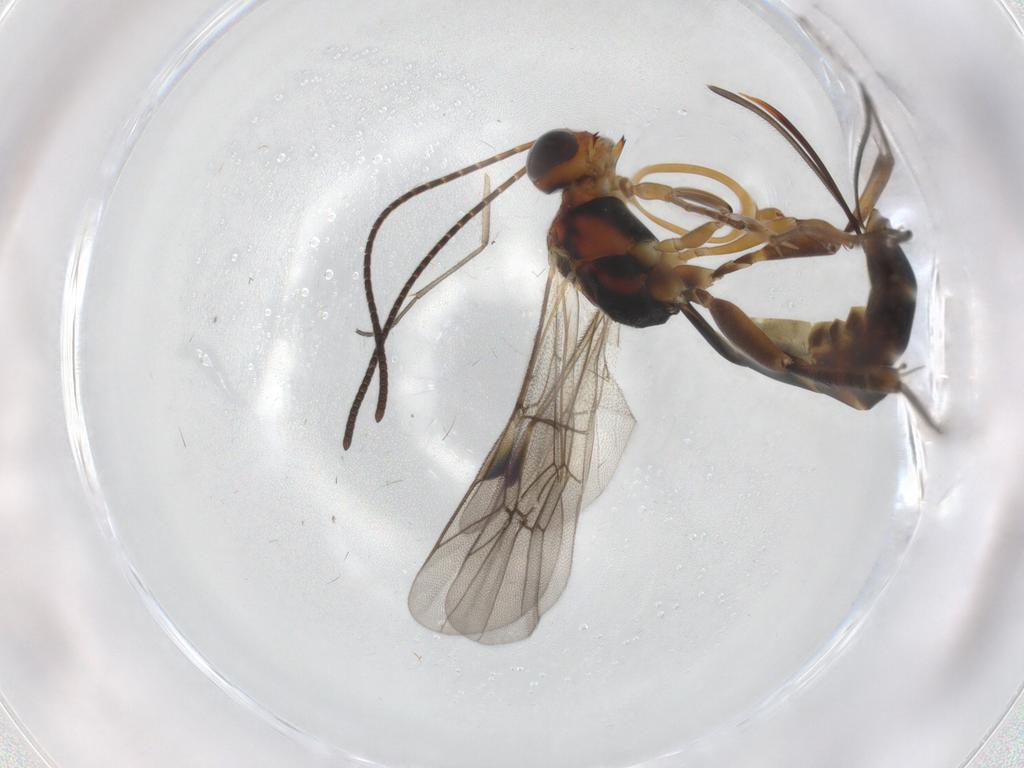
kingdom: Animalia
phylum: Arthropoda
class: Insecta
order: Hymenoptera
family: Ichneumonidae
